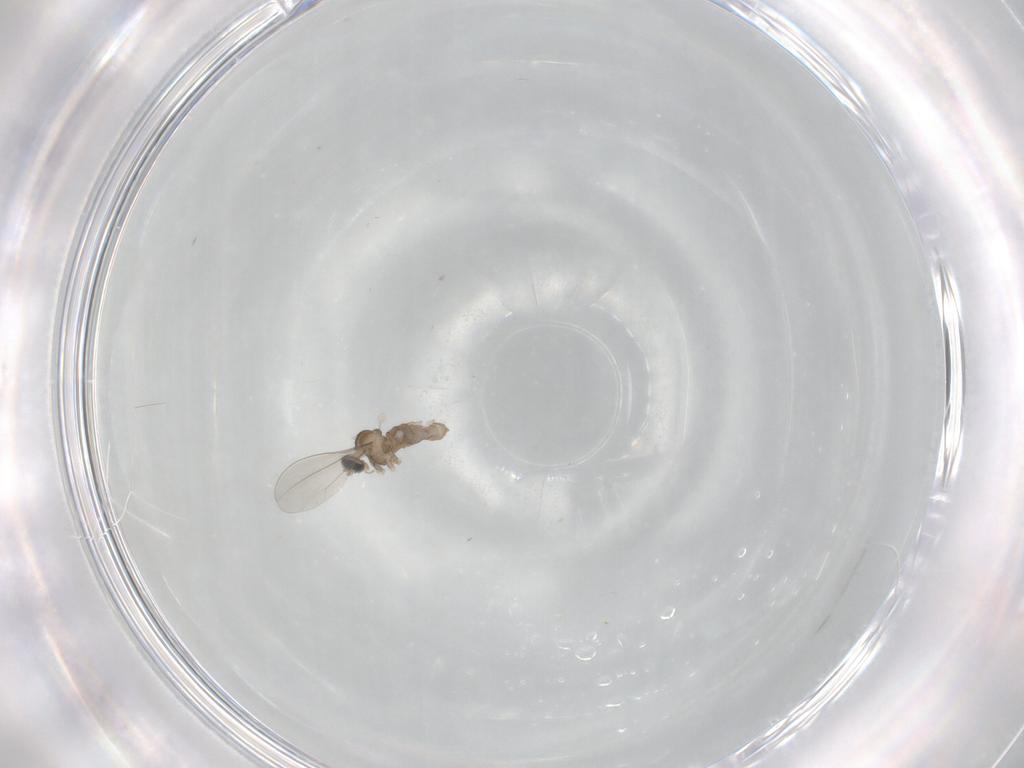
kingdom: Animalia
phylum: Arthropoda
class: Insecta
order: Diptera
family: Cecidomyiidae
